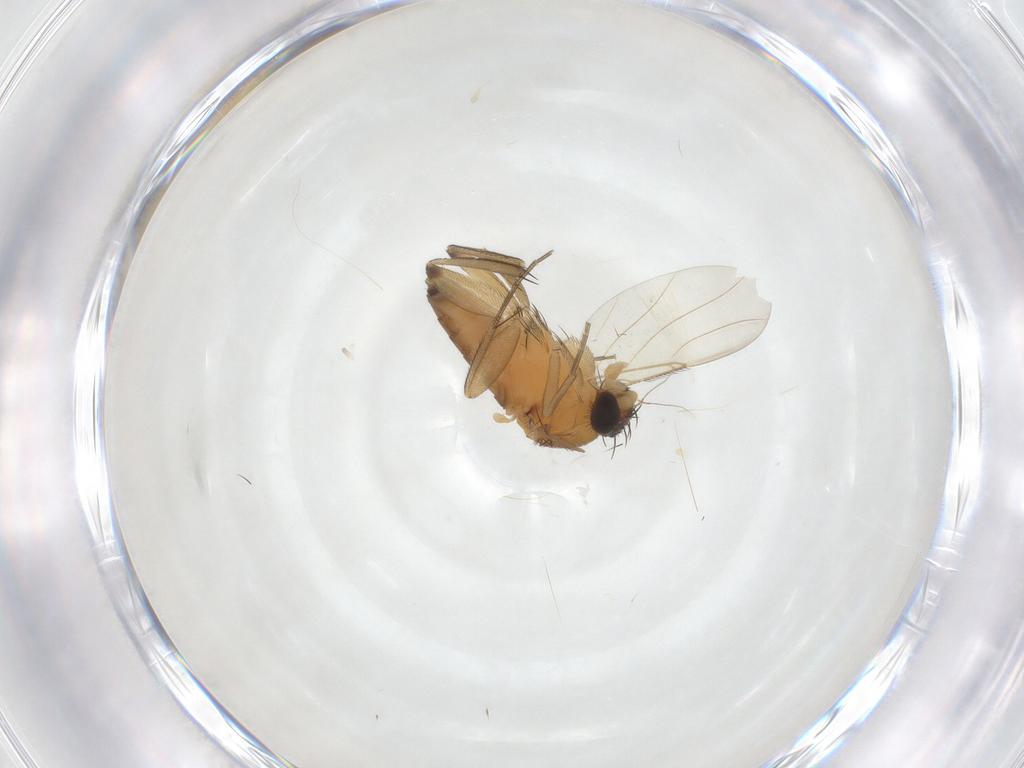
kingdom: Animalia
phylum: Arthropoda
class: Insecta
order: Diptera
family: Phoridae
